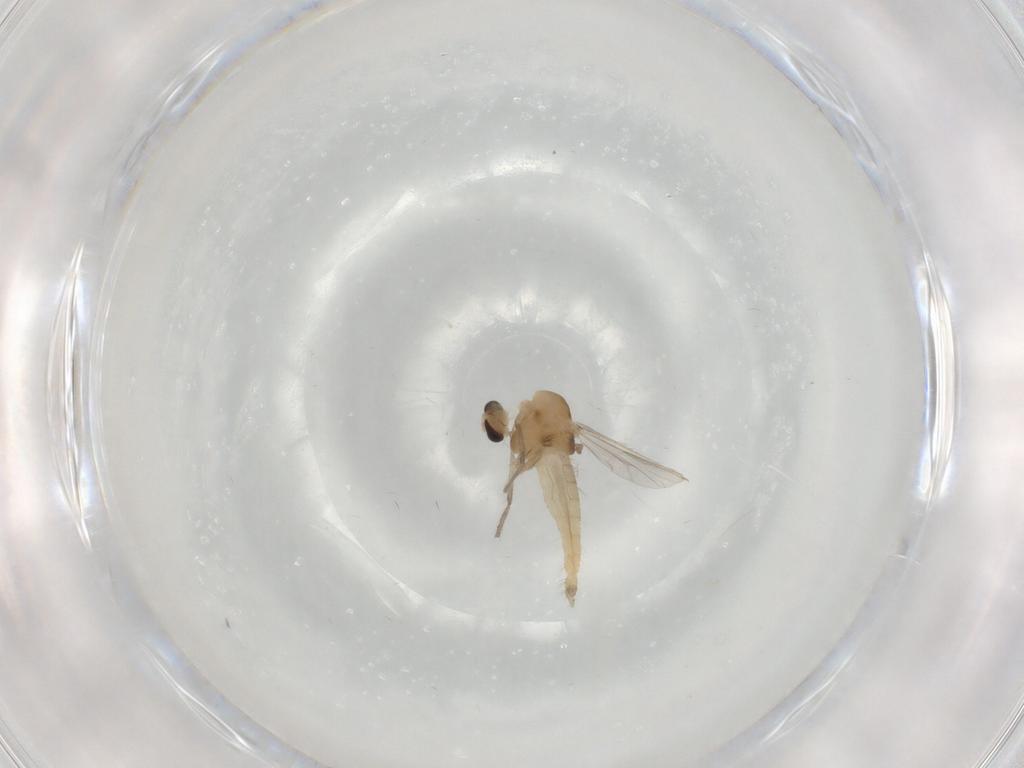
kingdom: Animalia
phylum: Arthropoda
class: Insecta
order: Diptera
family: Chironomidae
